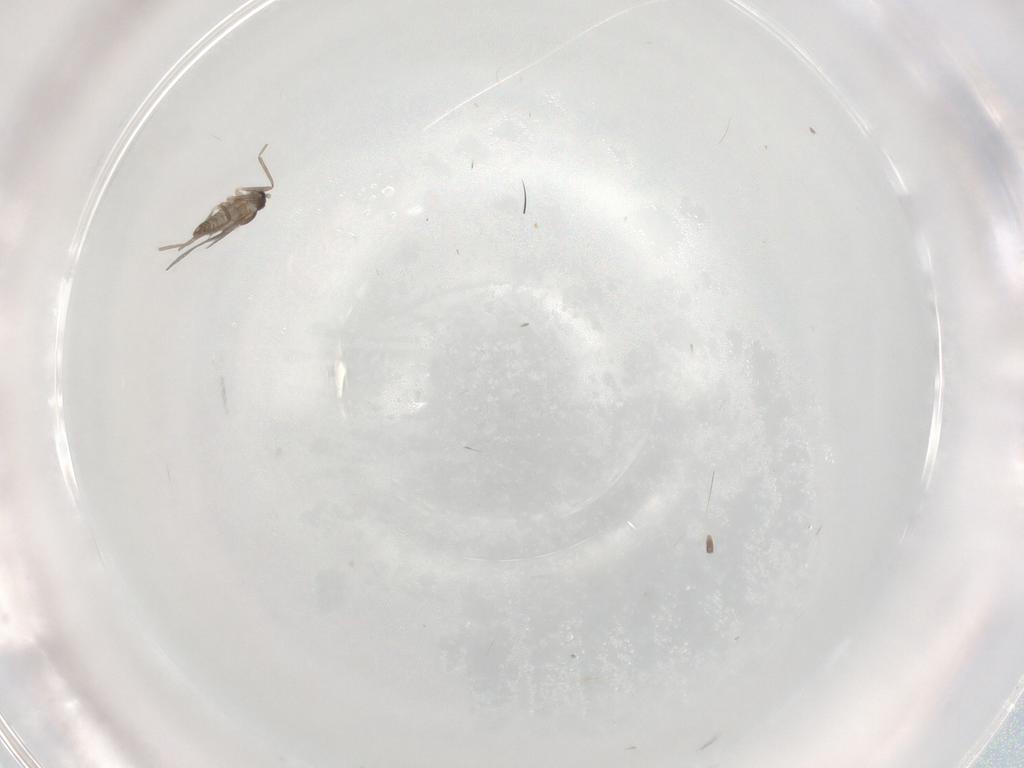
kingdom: Animalia
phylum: Arthropoda
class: Insecta
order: Diptera
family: Cecidomyiidae
